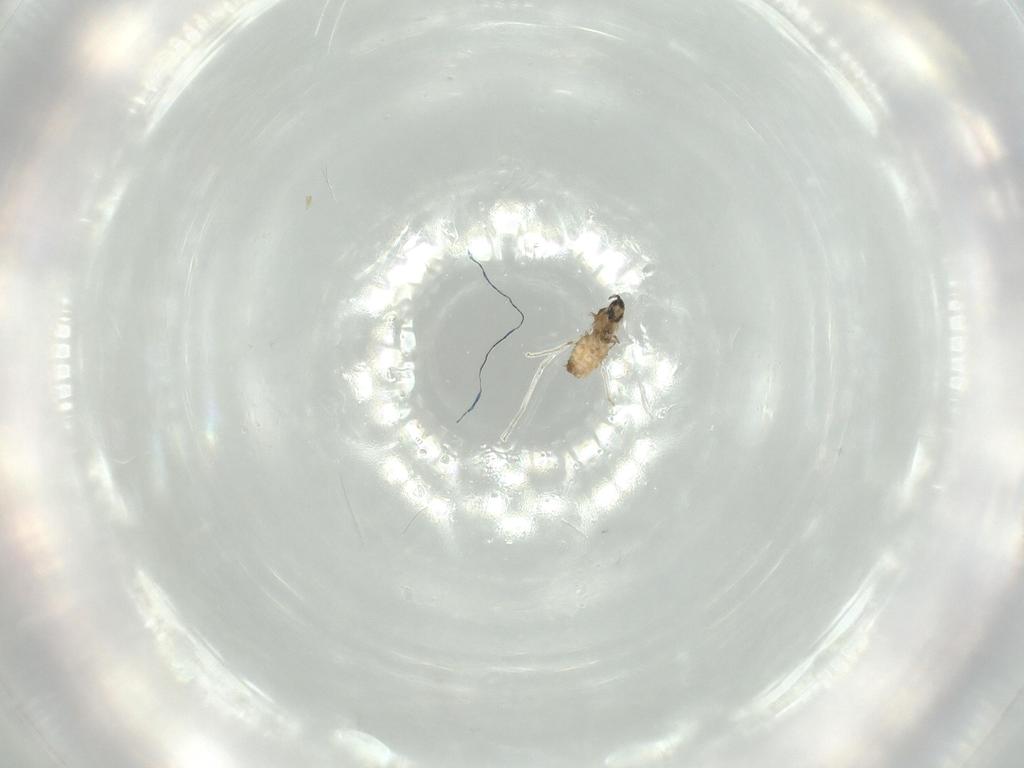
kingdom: Animalia
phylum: Arthropoda
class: Insecta
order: Diptera
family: Cecidomyiidae
